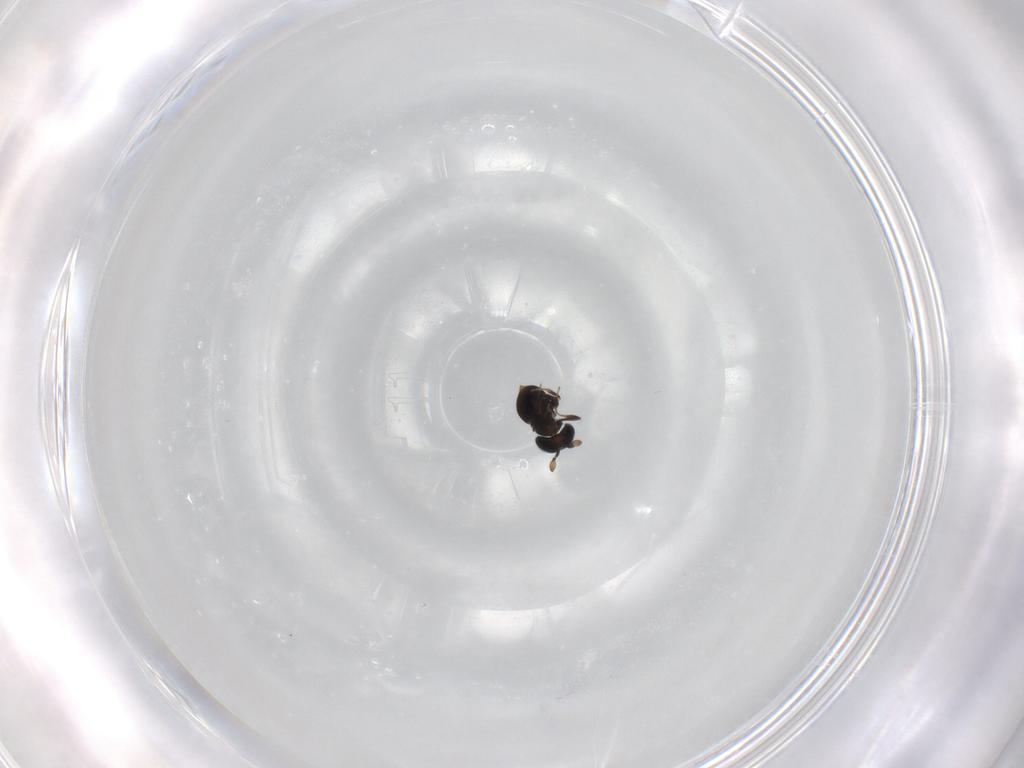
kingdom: Animalia
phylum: Arthropoda
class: Insecta
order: Hymenoptera
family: Scelionidae
